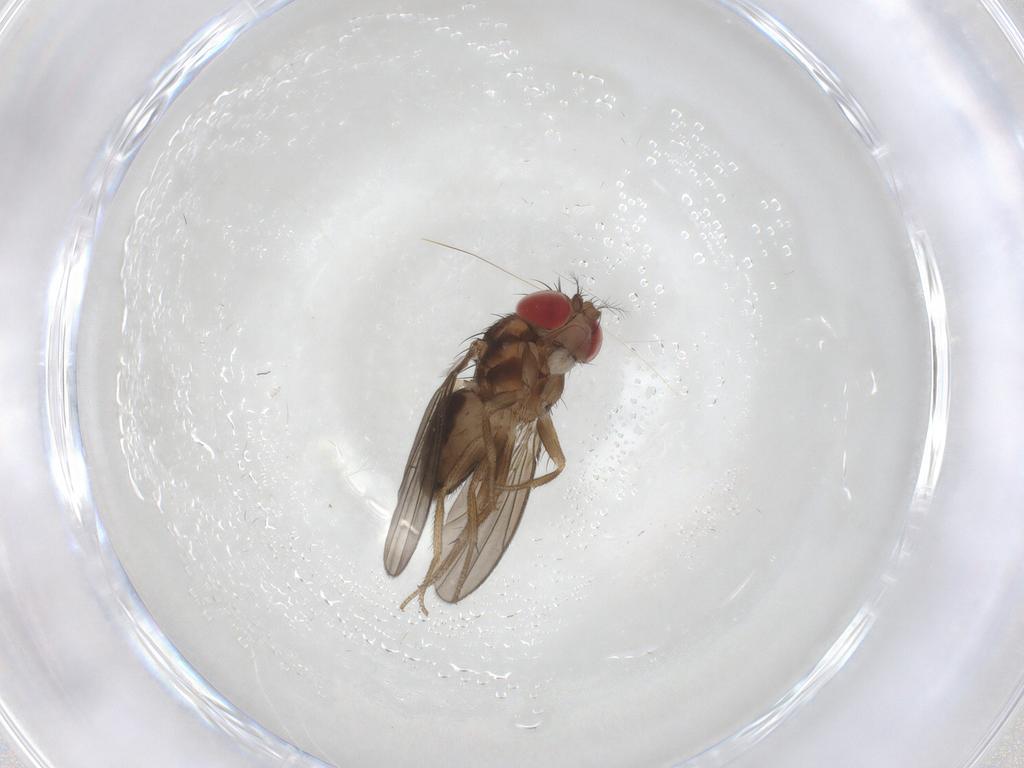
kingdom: Animalia
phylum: Arthropoda
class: Insecta
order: Diptera
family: Drosophilidae
